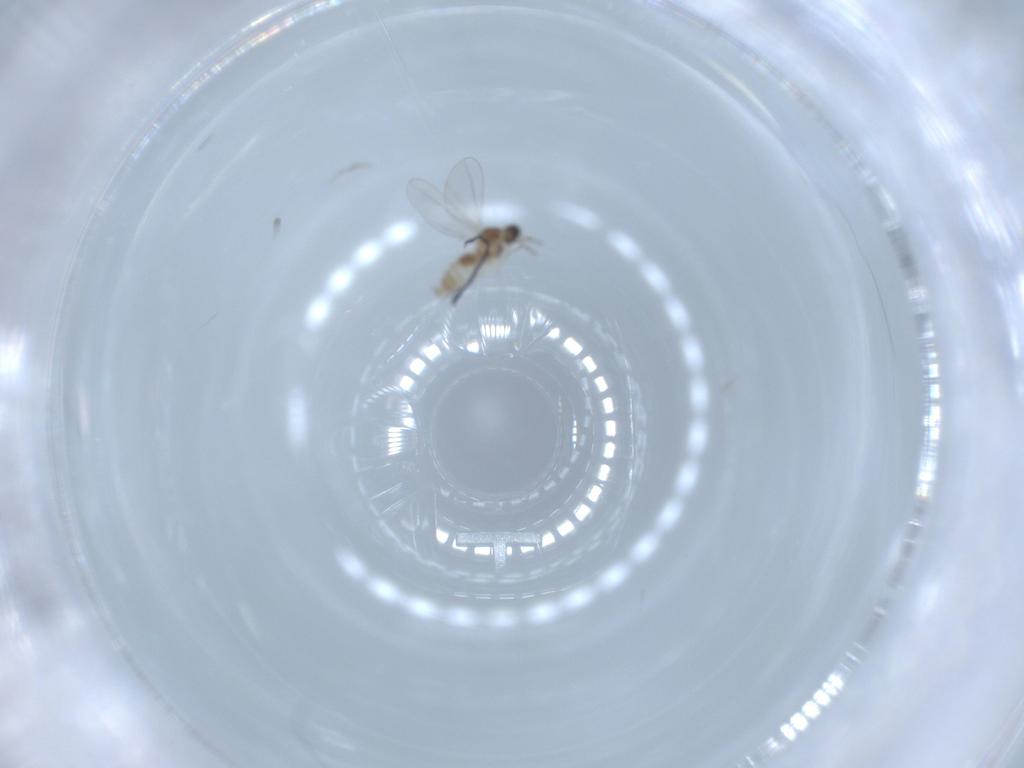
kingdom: Animalia
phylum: Arthropoda
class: Insecta
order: Diptera
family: Cecidomyiidae
